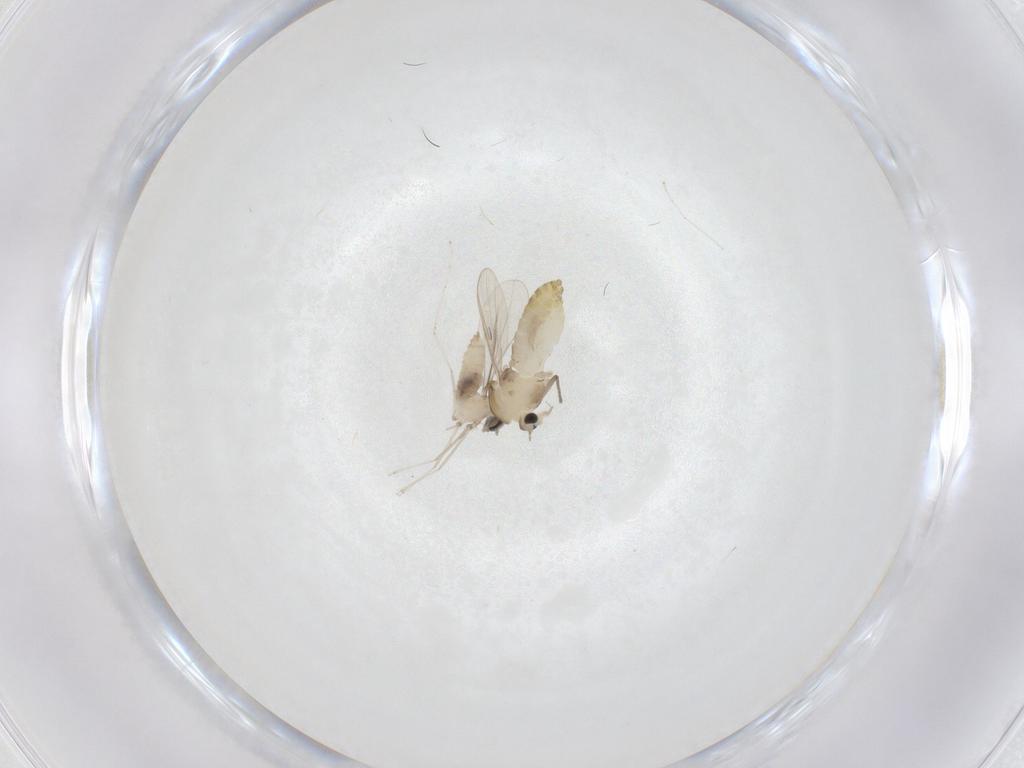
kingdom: Animalia
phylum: Arthropoda
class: Insecta
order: Diptera
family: Cecidomyiidae
